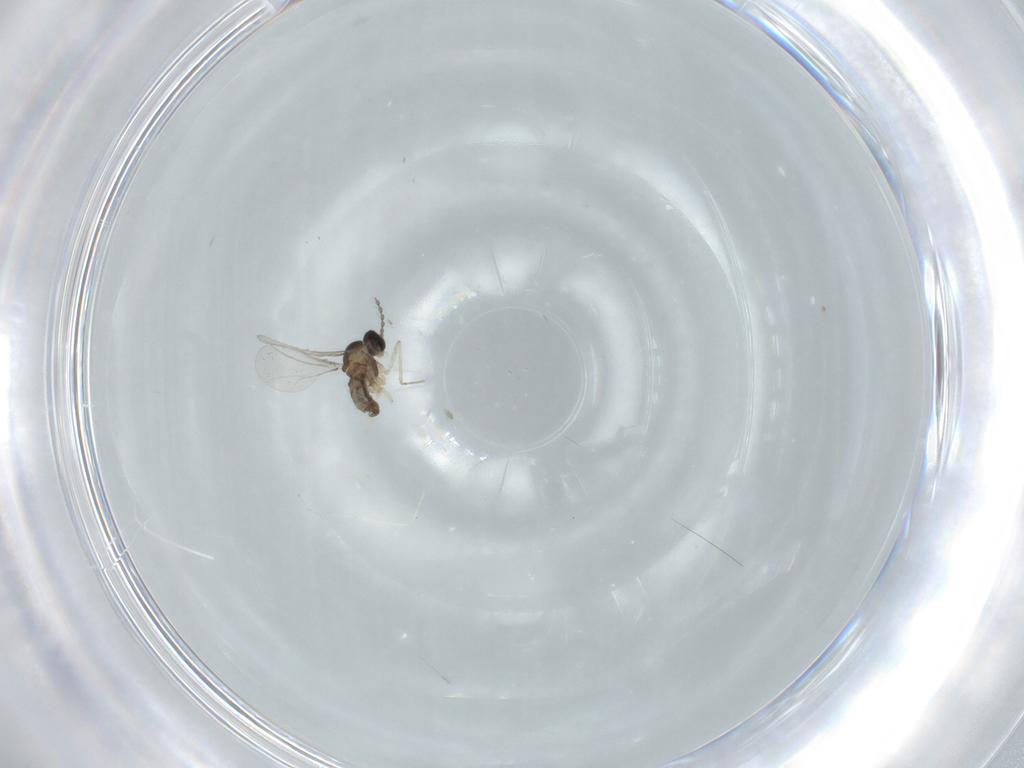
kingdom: Animalia
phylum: Arthropoda
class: Insecta
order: Diptera
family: Cecidomyiidae
